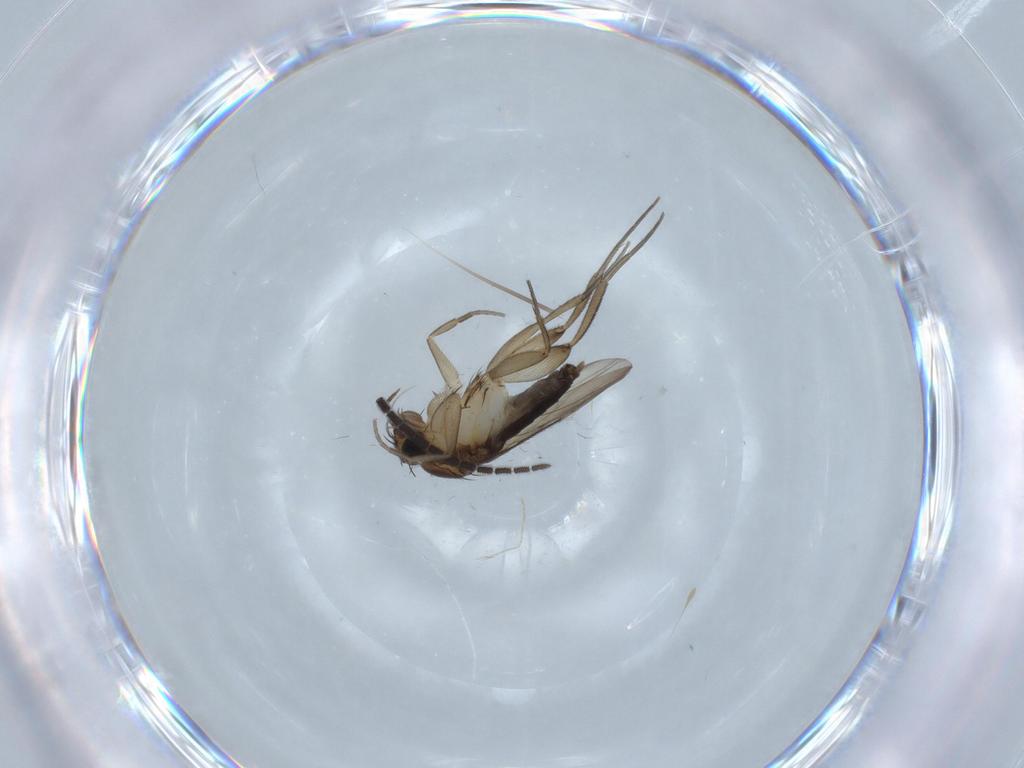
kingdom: Animalia
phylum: Arthropoda
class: Insecta
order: Diptera
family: Phoridae
